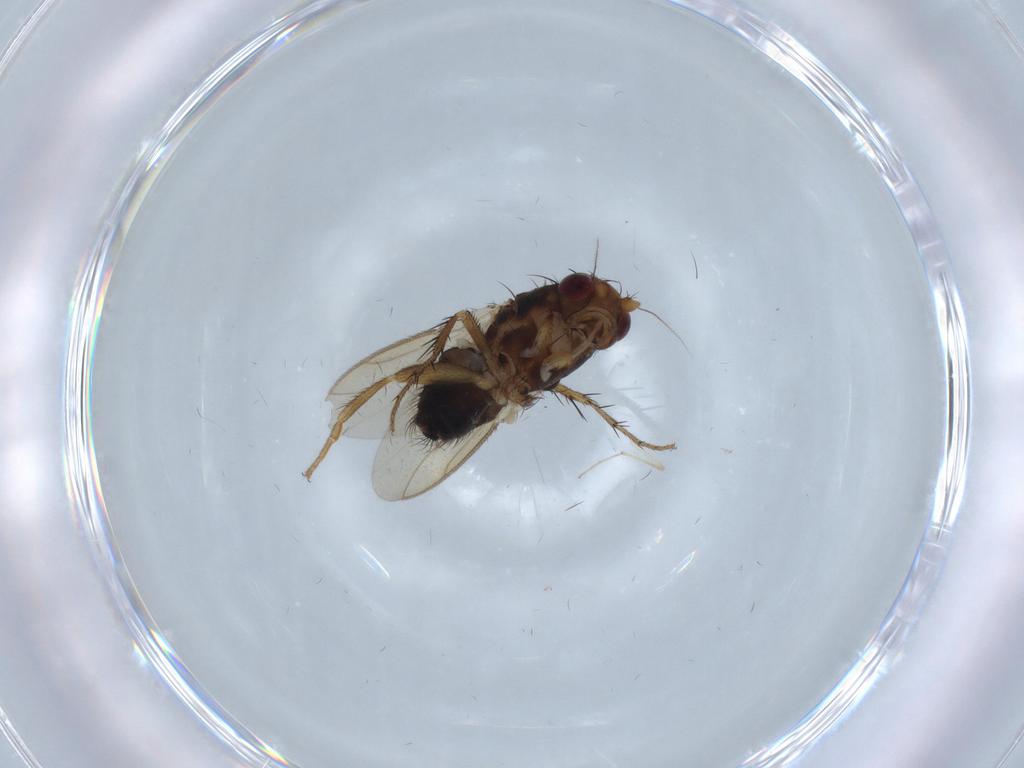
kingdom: Animalia
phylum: Arthropoda
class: Insecta
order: Diptera
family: Sphaeroceridae
